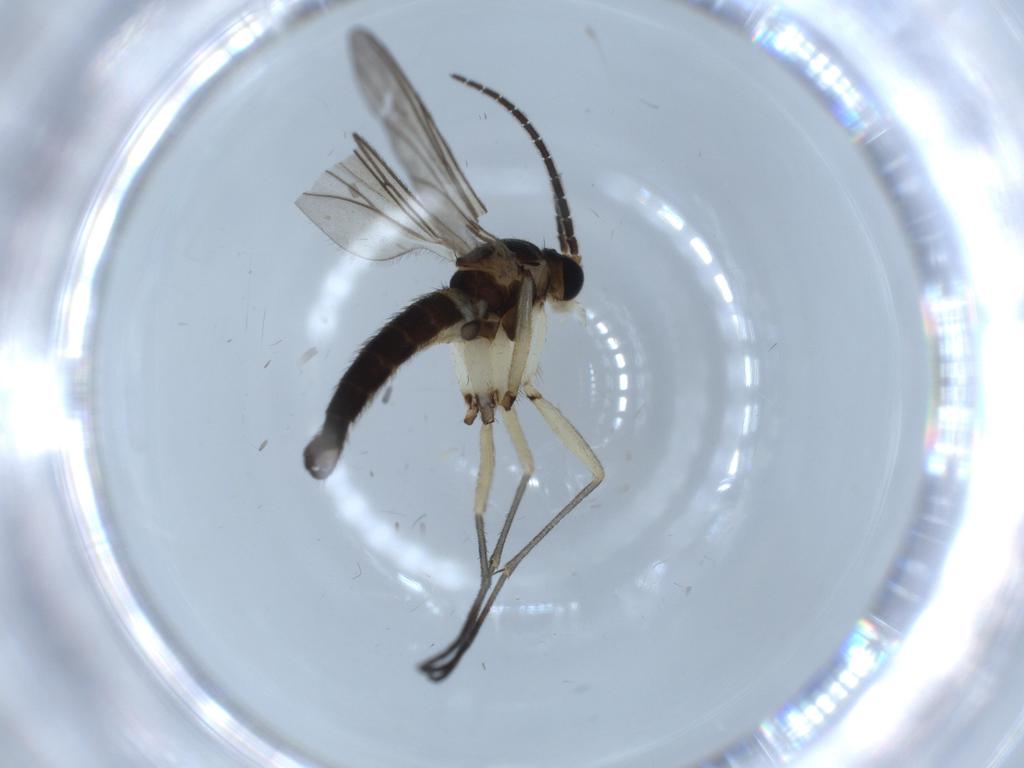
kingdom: Animalia
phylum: Arthropoda
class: Insecta
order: Diptera
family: Sciaridae
